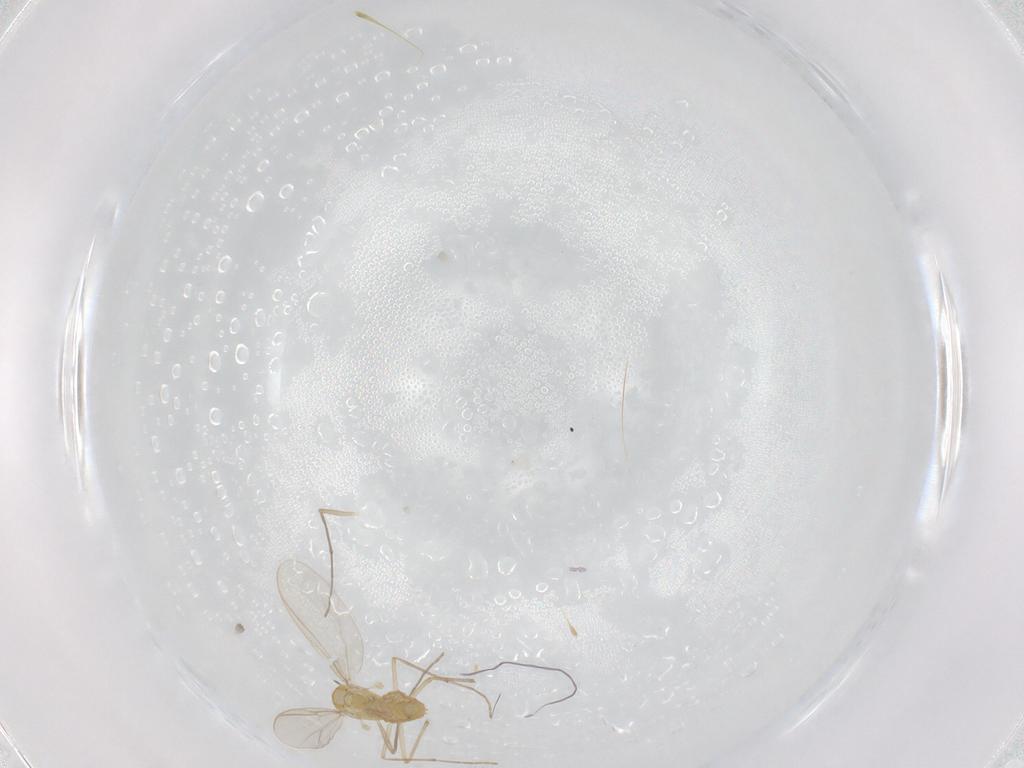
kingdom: Animalia
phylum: Arthropoda
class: Insecta
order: Diptera
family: Chironomidae
